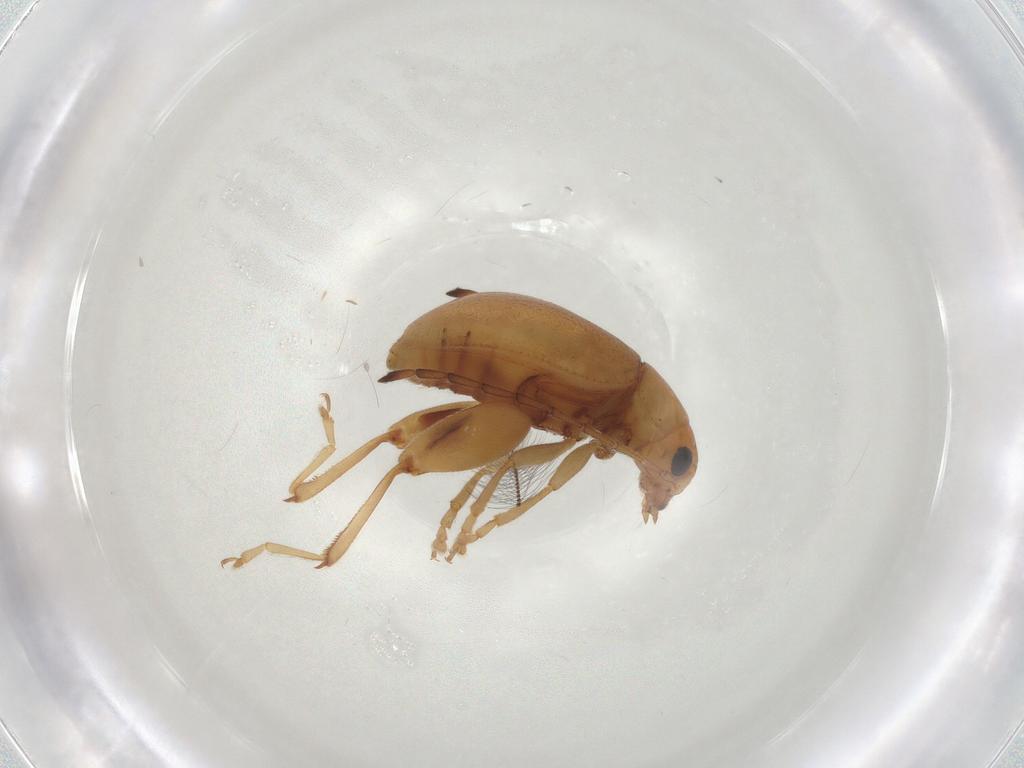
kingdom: Animalia
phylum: Arthropoda
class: Insecta
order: Coleoptera
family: Chrysomelidae
